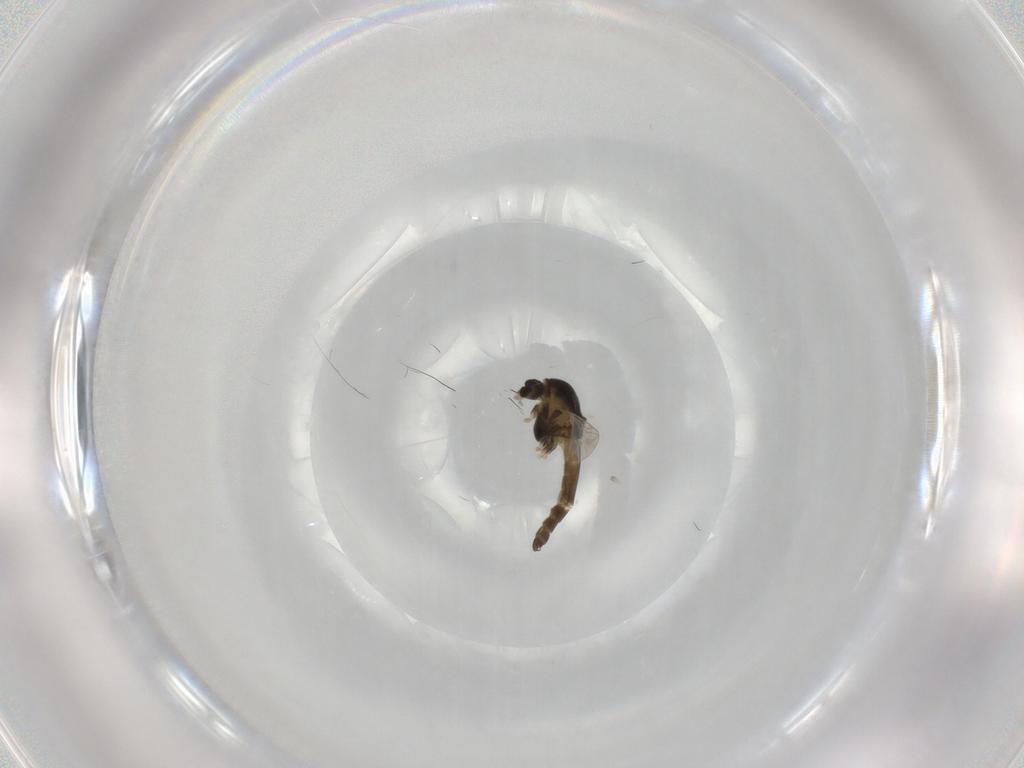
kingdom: Animalia
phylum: Arthropoda
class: Insecta
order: Diptera
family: Chironomidae
